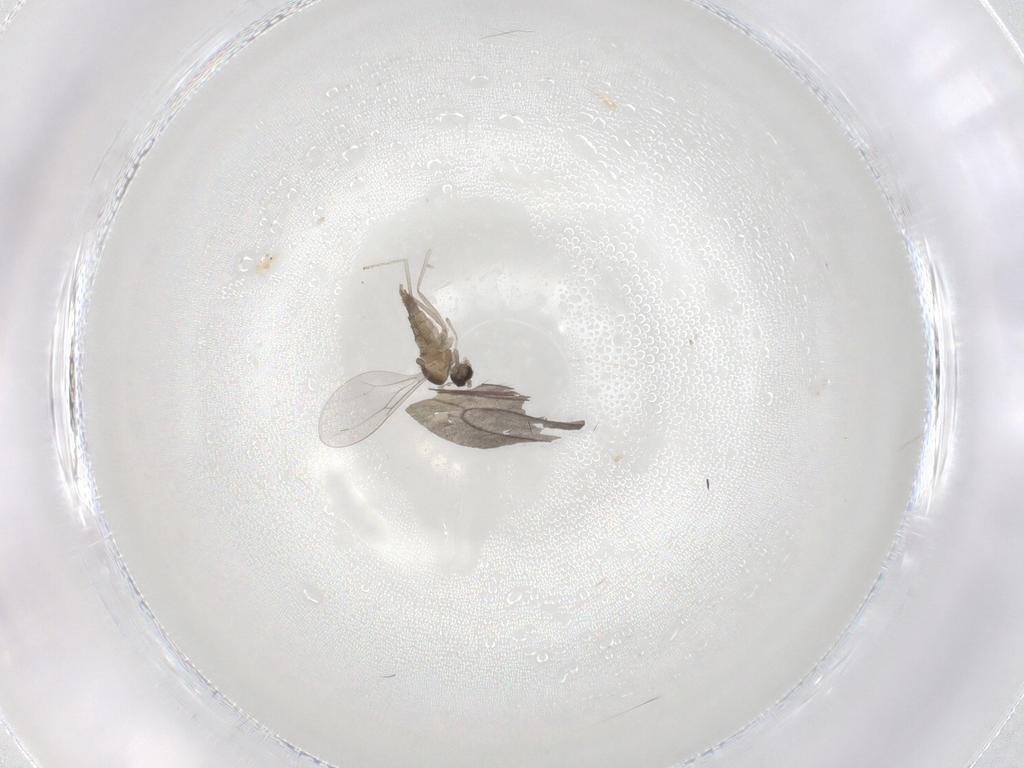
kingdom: Animalia
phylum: Arthropoda
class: Insecta
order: Diptera
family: Cecidomyiidae
